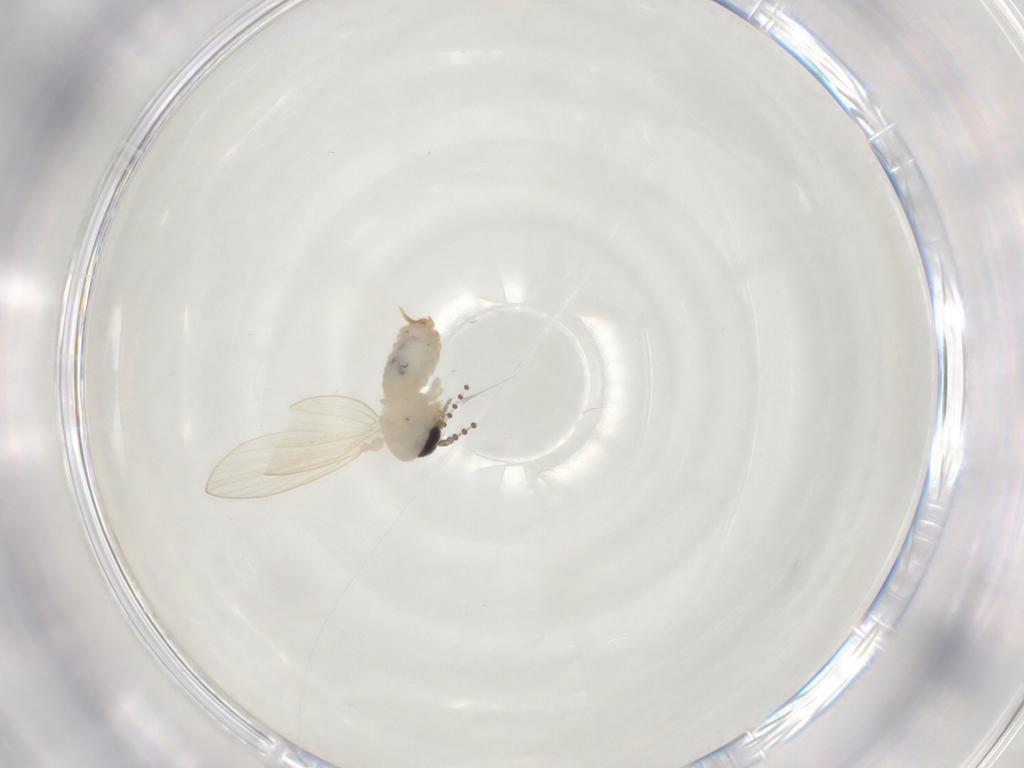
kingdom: Animalia
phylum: Arthropoda
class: Insecta
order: Diptera
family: Psychodidae
